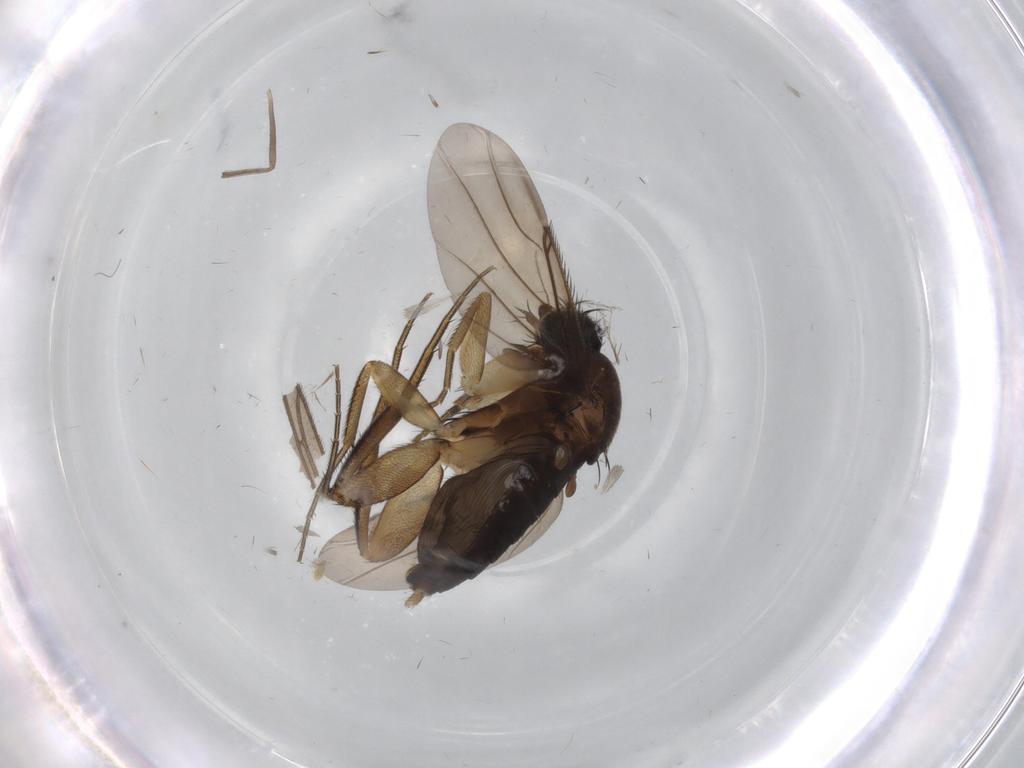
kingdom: Animalia
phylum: Arthropoda
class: Insecta
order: Diptera
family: Phoridae
